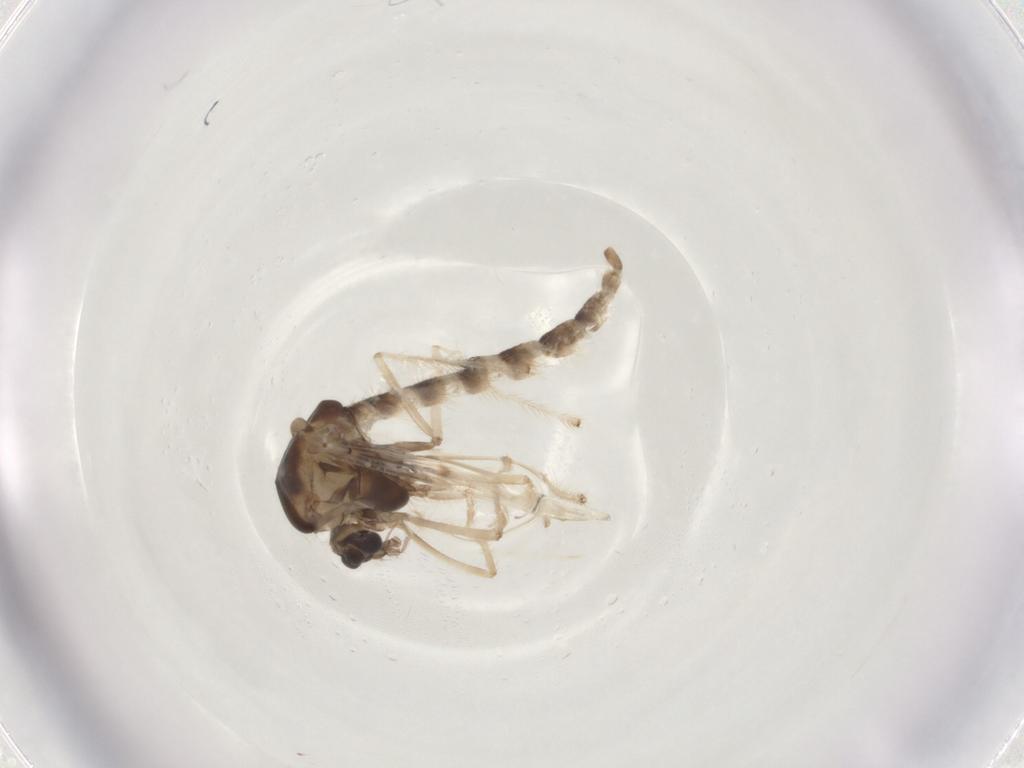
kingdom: Animalia
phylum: Arthropoda
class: Insecta
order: Diptera
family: Chironomidae
